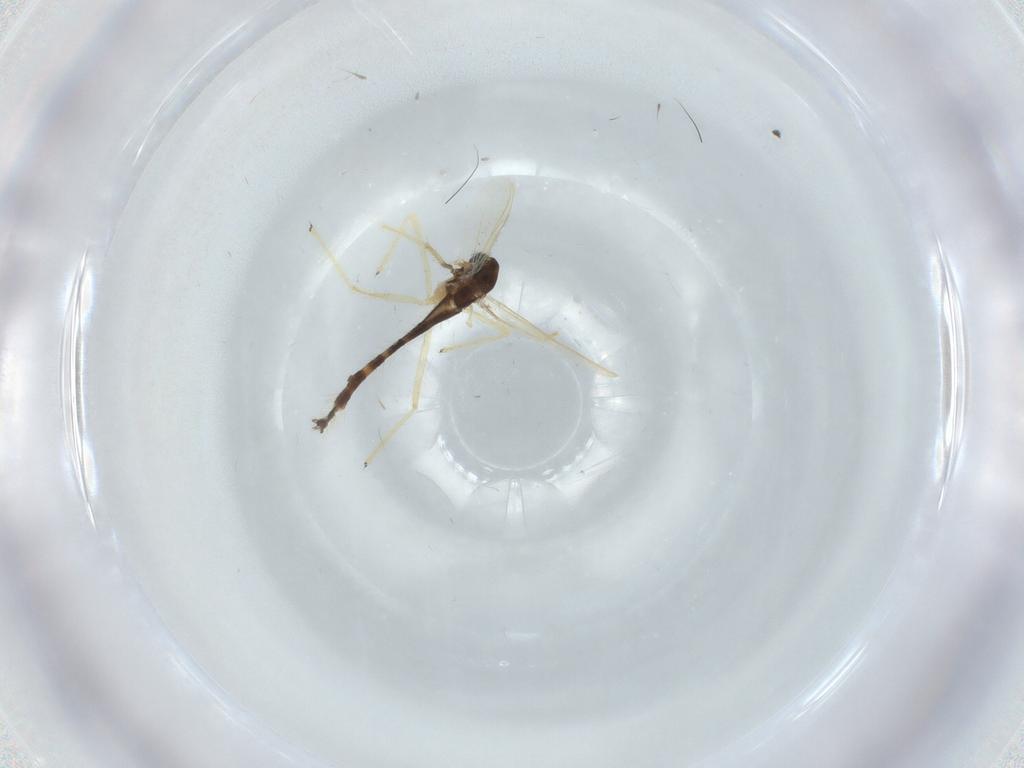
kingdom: Animalia
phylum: Arthropoda
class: Insecta
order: Diptera
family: Chironomidae
